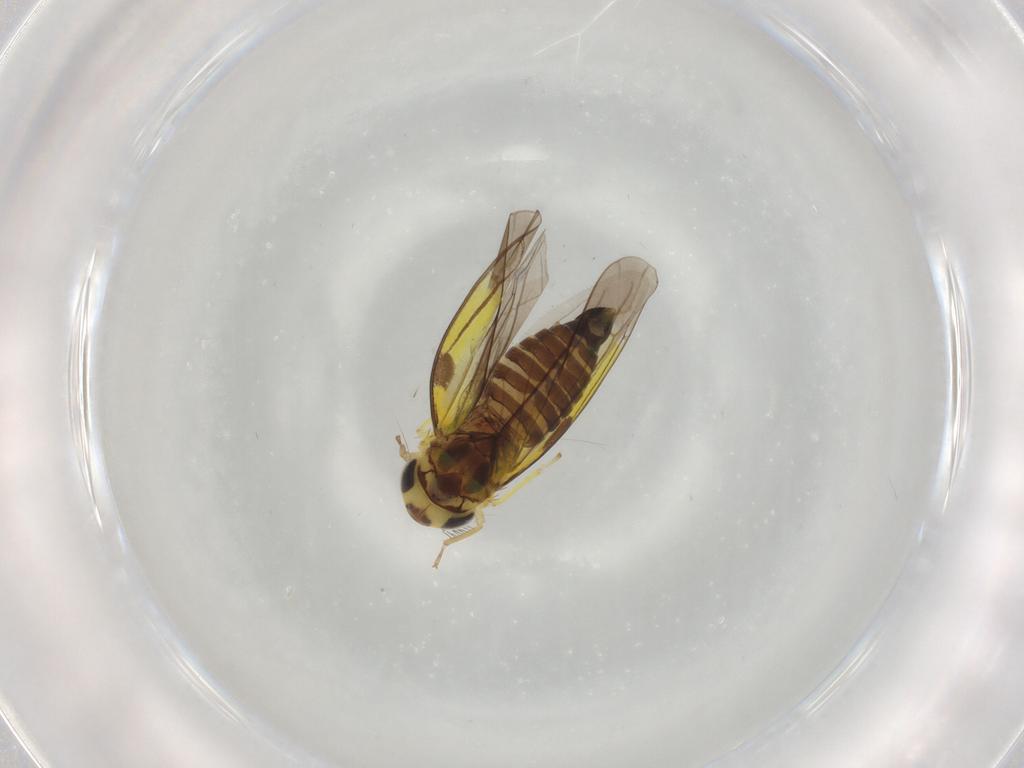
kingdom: Animalia
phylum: Arthropoda
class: Insecta
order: Hemiptera
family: Cicadellidae
